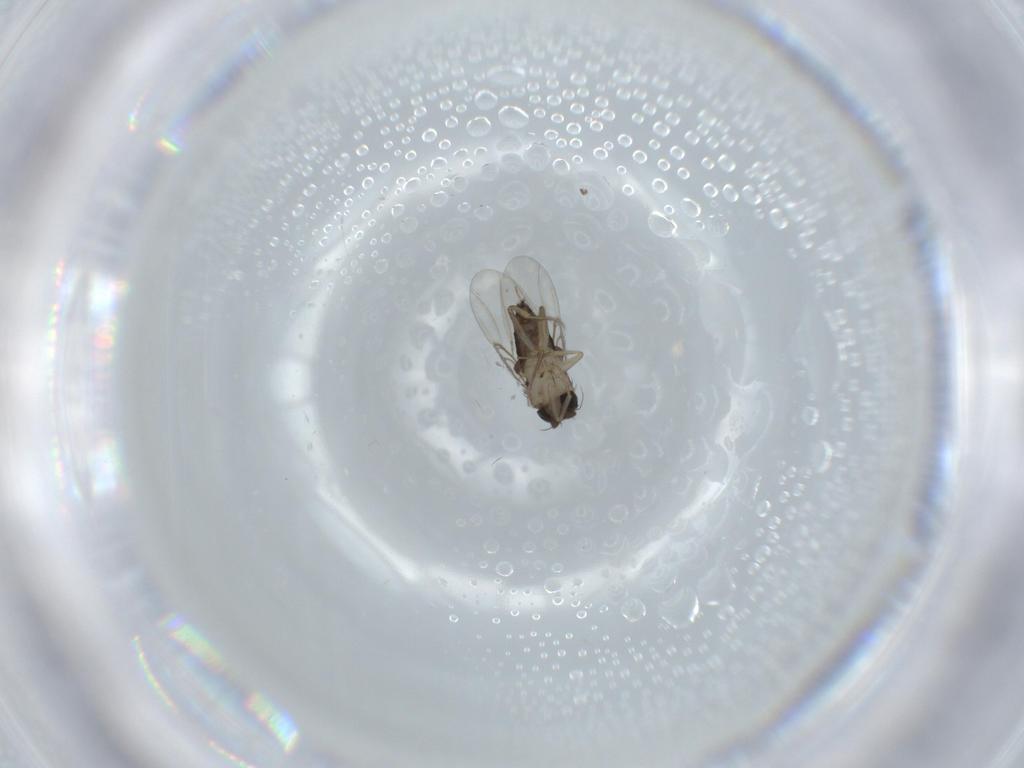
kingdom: Animalia
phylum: Arthropoda
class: Insecta
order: Diptera
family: Phoridae
